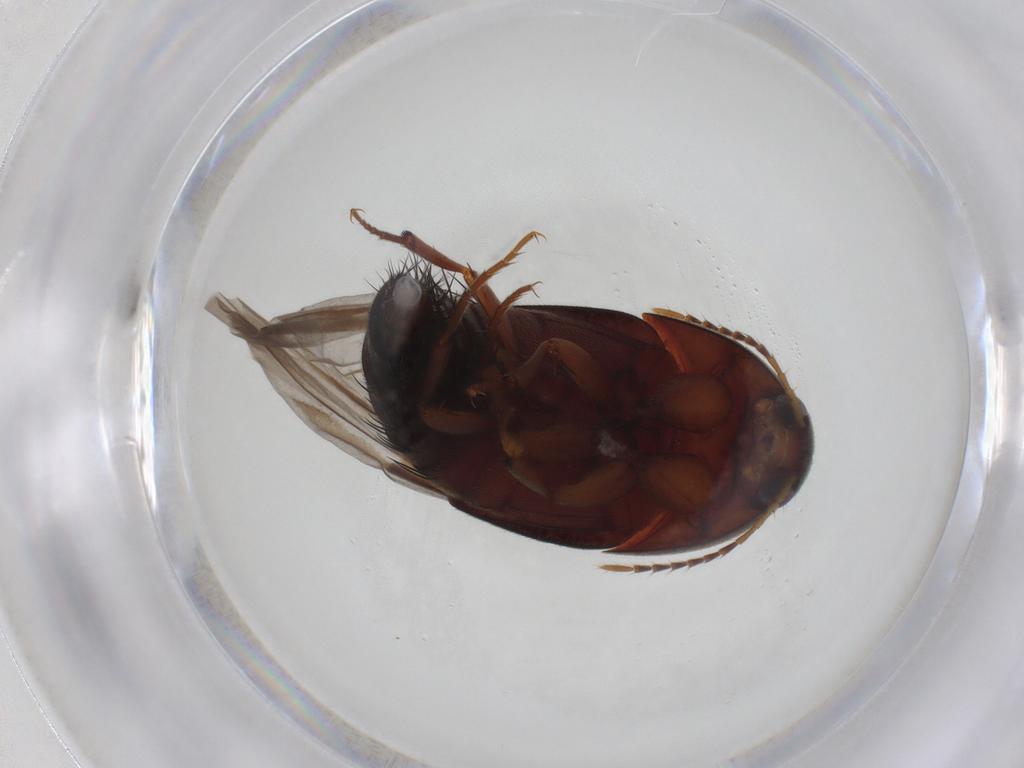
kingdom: Animalia
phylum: Arthropoda
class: Insecta
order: Coleoptera
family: Staphylinidae
